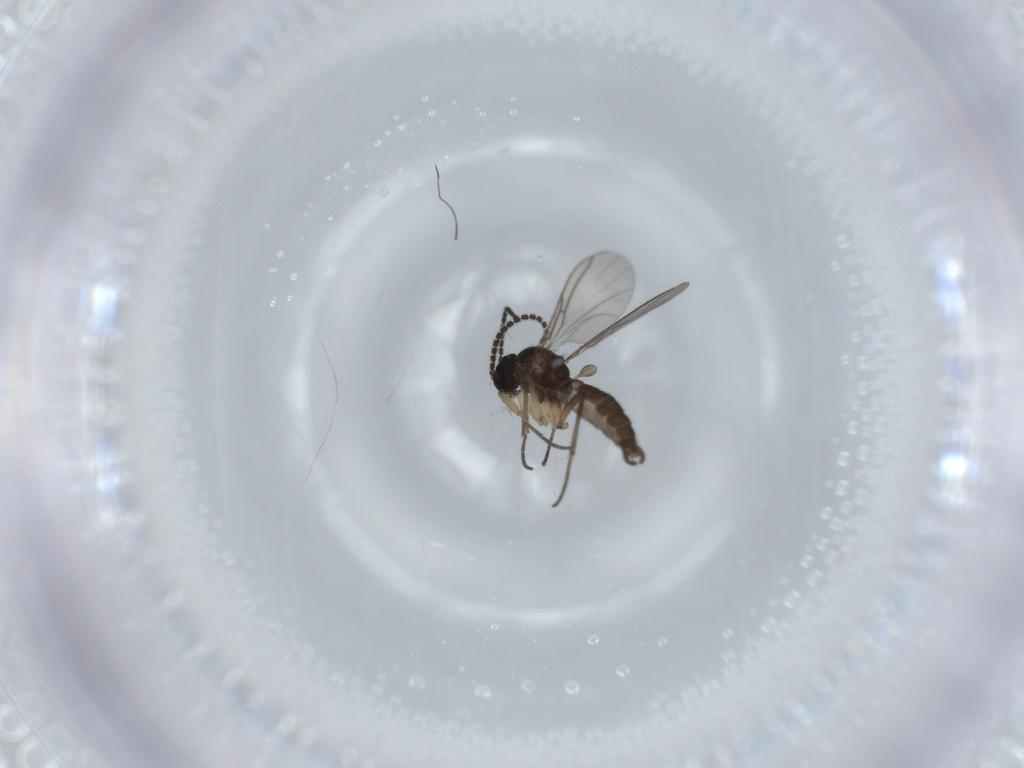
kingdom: Animalia
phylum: Arthropoda
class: Insecta
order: Diptera
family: Sciaridae
